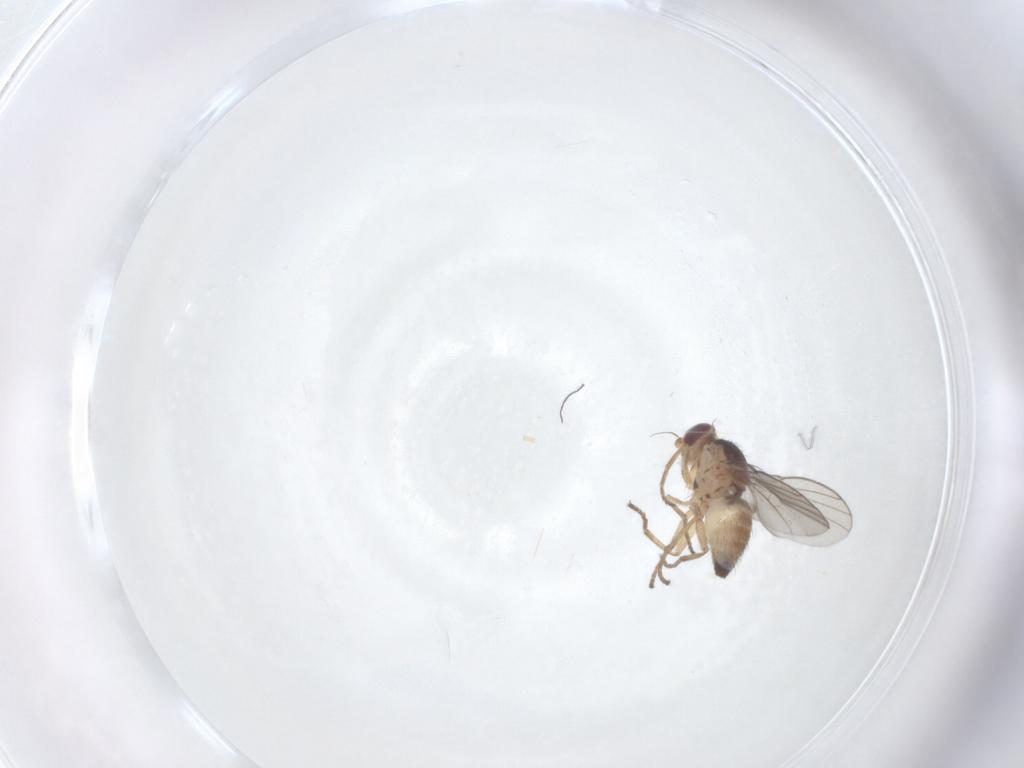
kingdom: Animalia
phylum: Arthropoda
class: Insecta
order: Diptera
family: Agromyzidae
